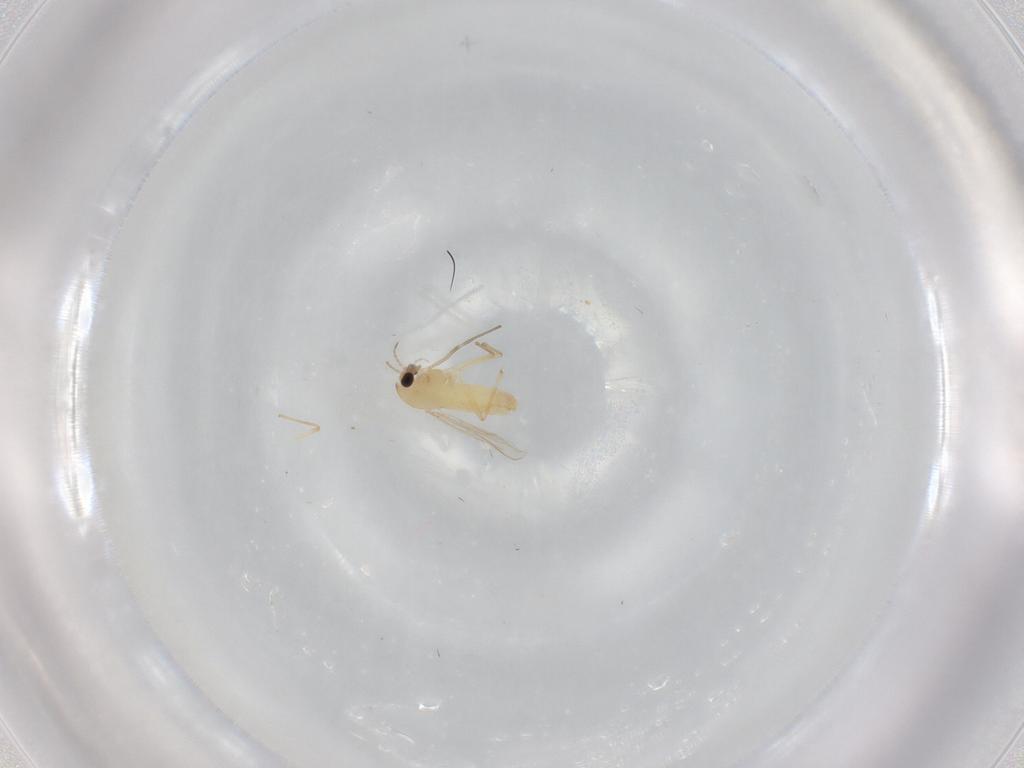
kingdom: Animalia
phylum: Arthropoda
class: Insecta
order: Diptera
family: Chironomidae
